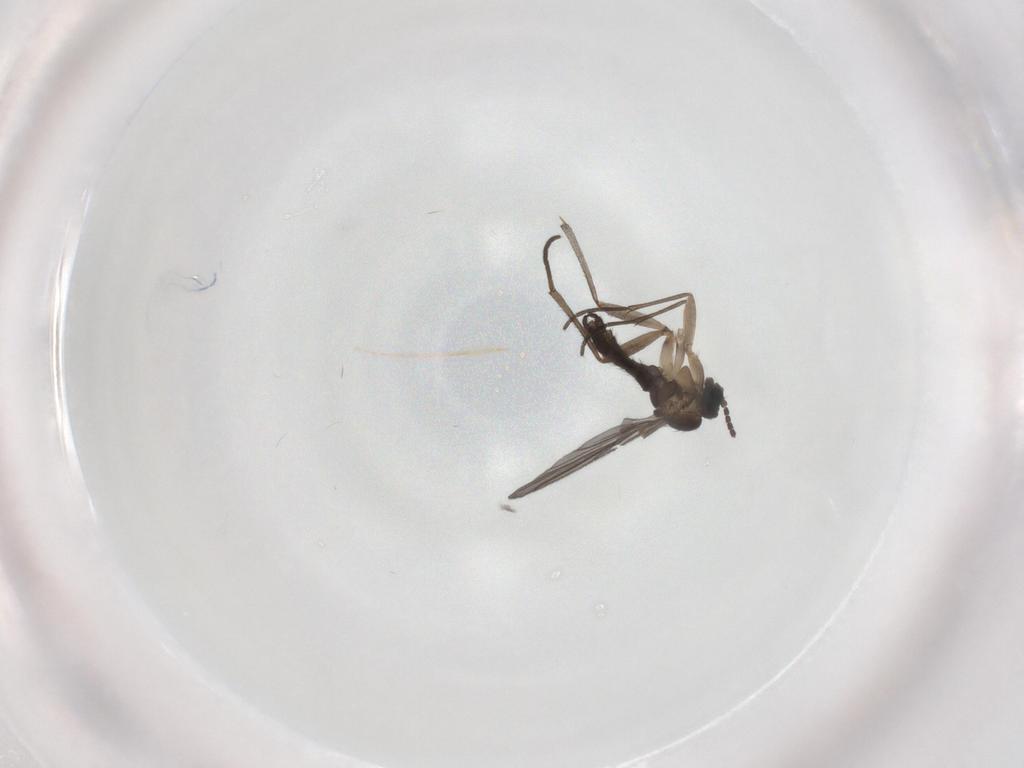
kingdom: Animalia
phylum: Arthropoda
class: Insecta
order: Diptera
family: Sciaridae
